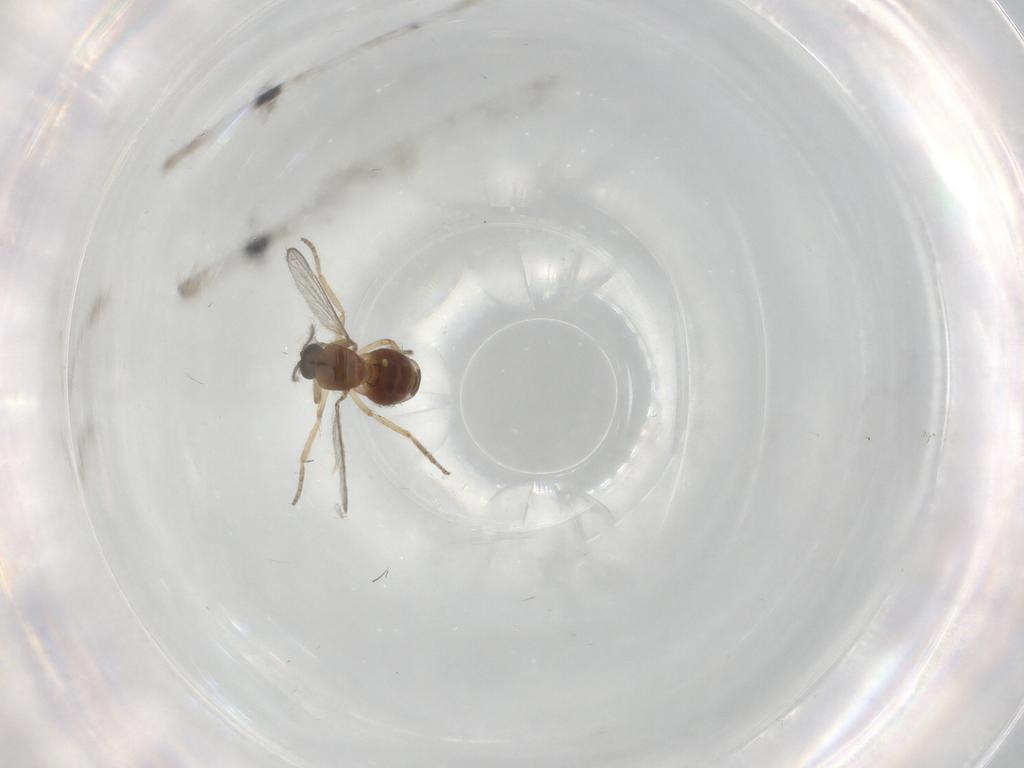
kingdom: Animalia
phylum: Arthropoda
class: Insecta
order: Diptera
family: Ceratopogonidae
